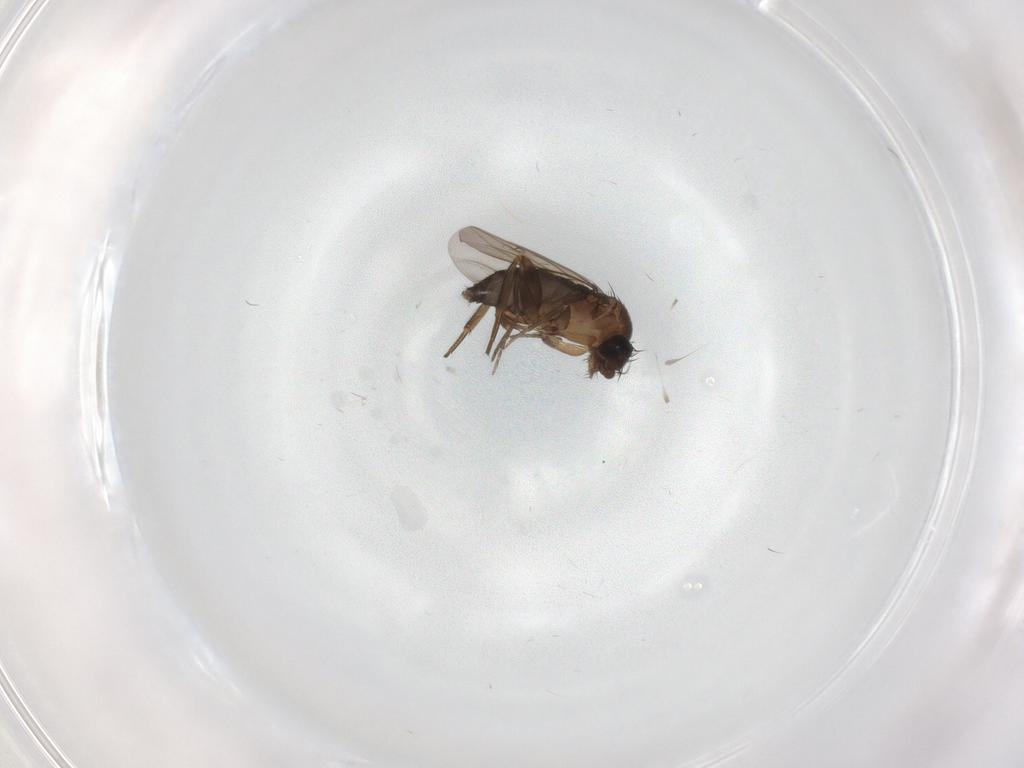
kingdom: Animalia
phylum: Arthropoda
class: Insecta
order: Diptera
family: Phoridae
